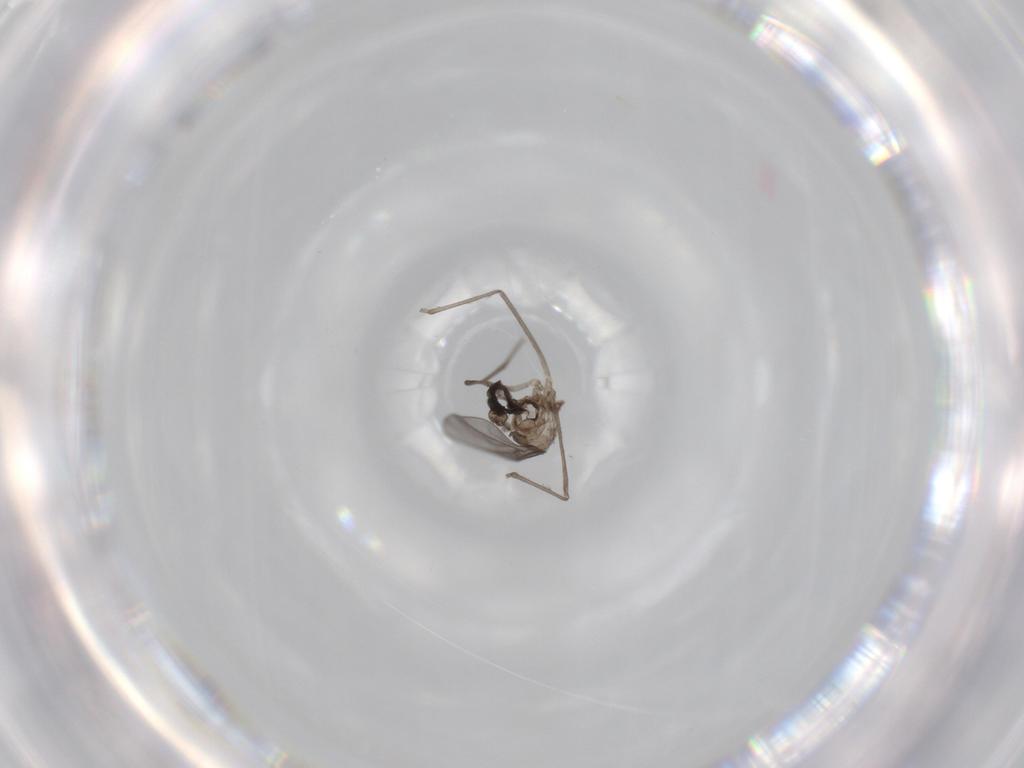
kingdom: Animalia
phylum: Arthropoda
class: Insecta
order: Diptera
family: Cecidomyiidae
